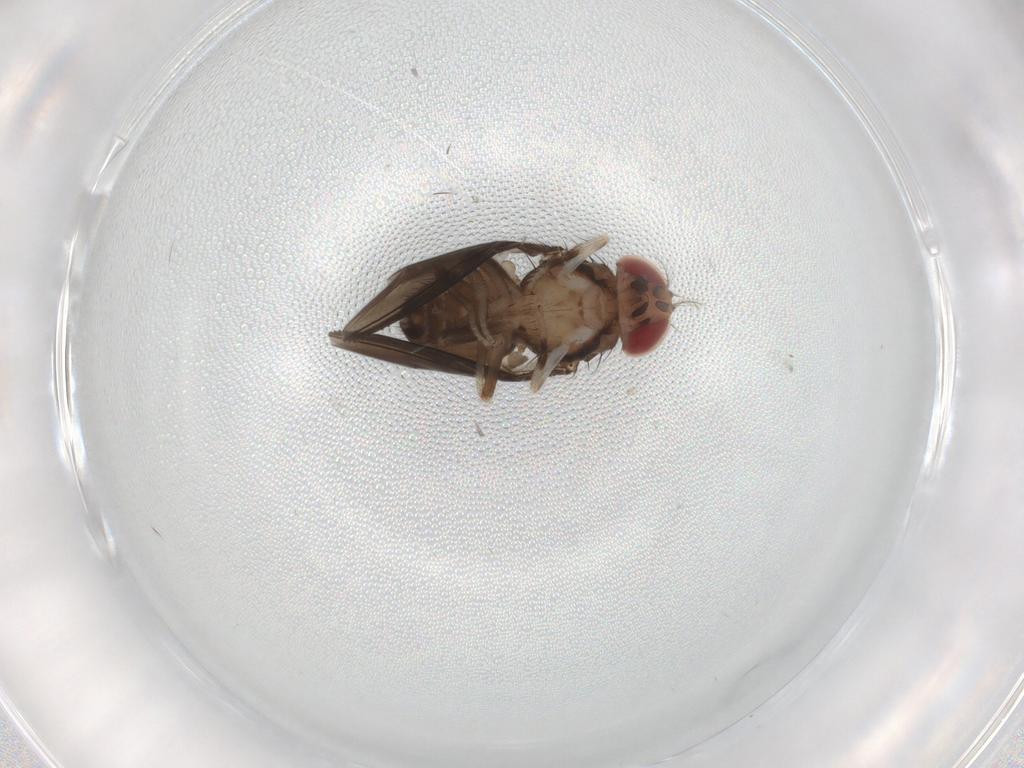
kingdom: Animalia
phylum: Arthropoda
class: Insecta
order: Diptera
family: Drosophilidae
